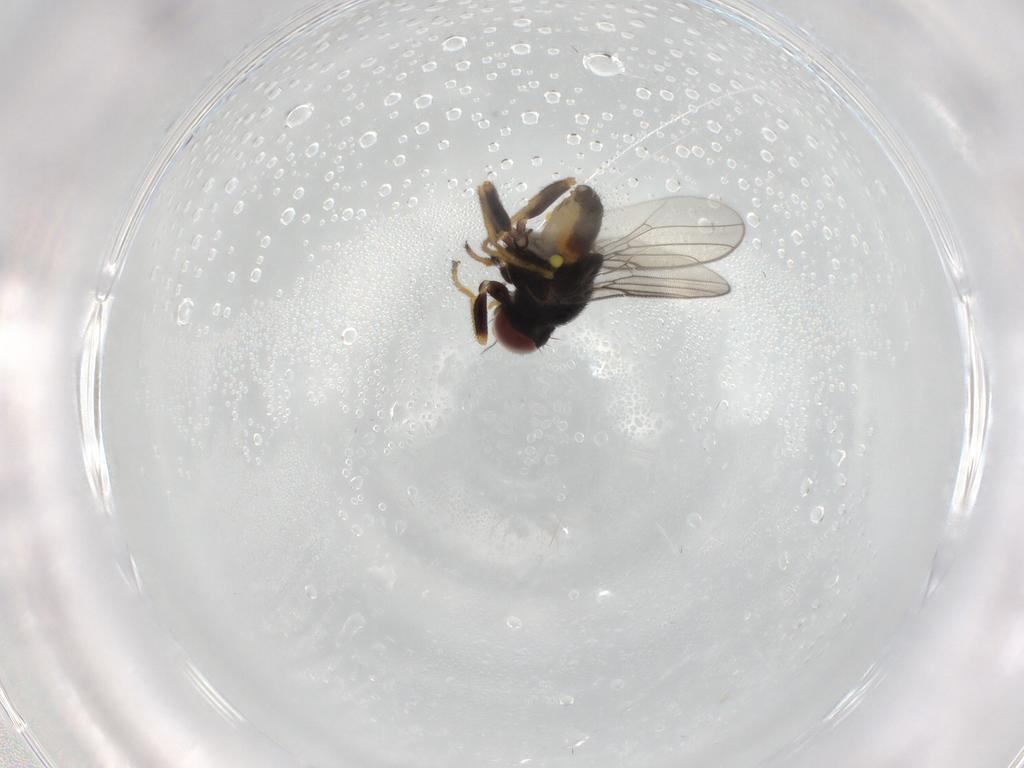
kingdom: Animalia
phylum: Arthropoda
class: Insecta
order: Diptera
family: Chloropidae
